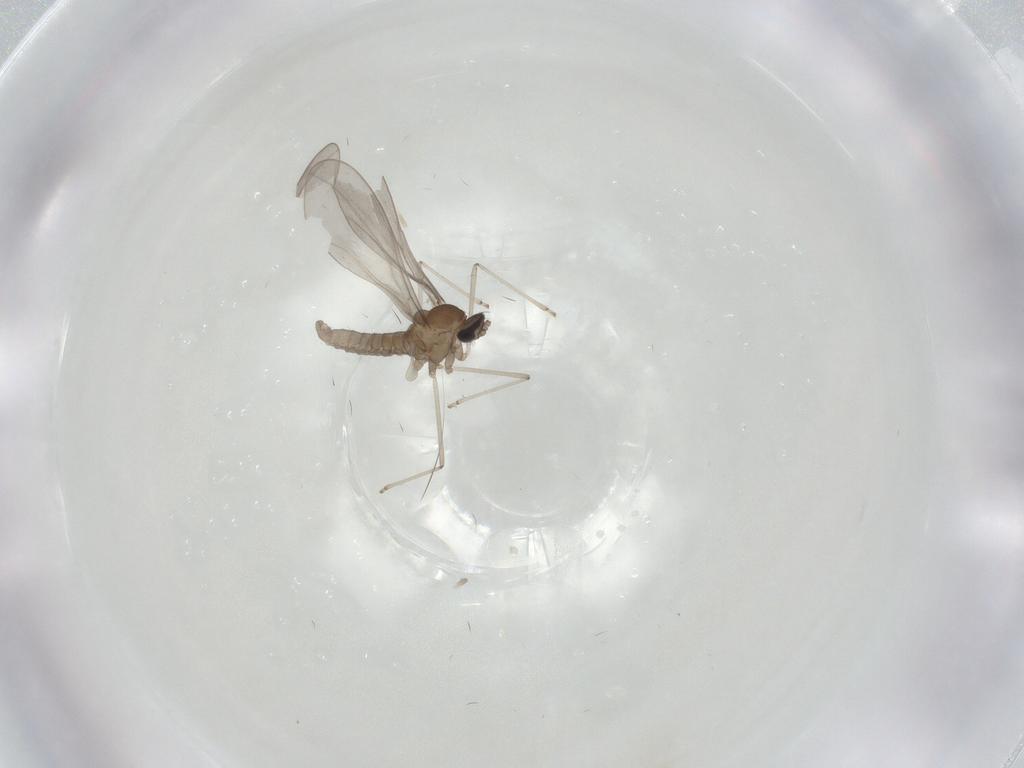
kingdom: Animalia
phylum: Arthropoda
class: Insecta
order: Diptera
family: Cecidomyiidae
